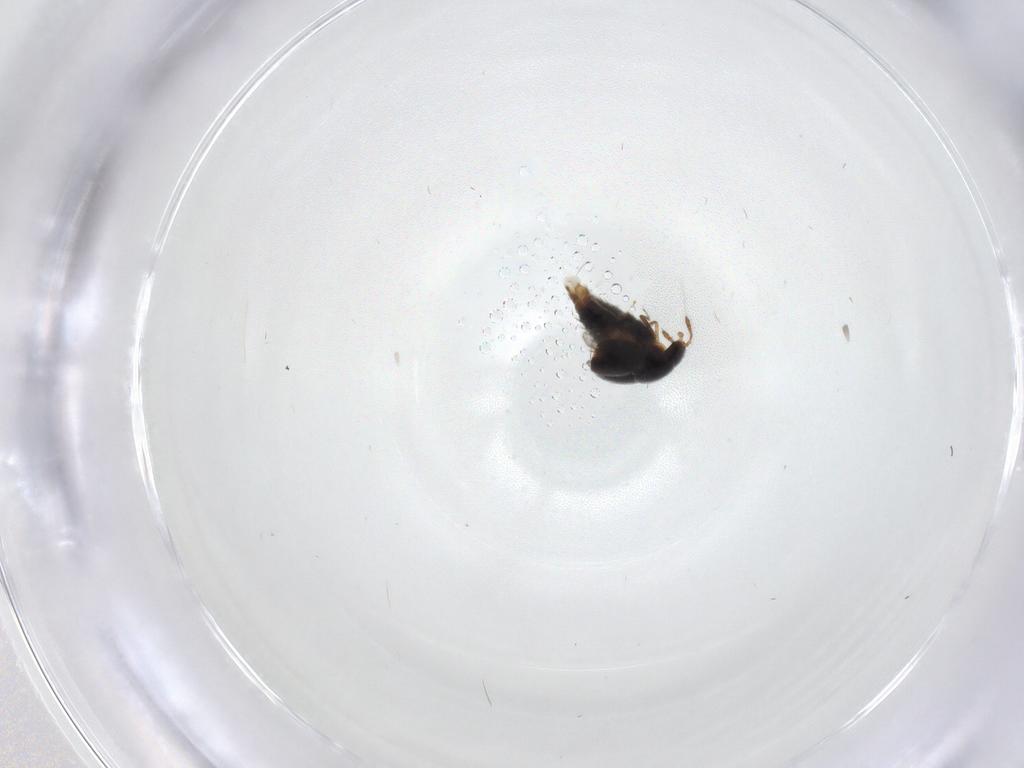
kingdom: Animalia
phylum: Arthropoda
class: Insecta
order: Coleoptera
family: Staphylinidae
